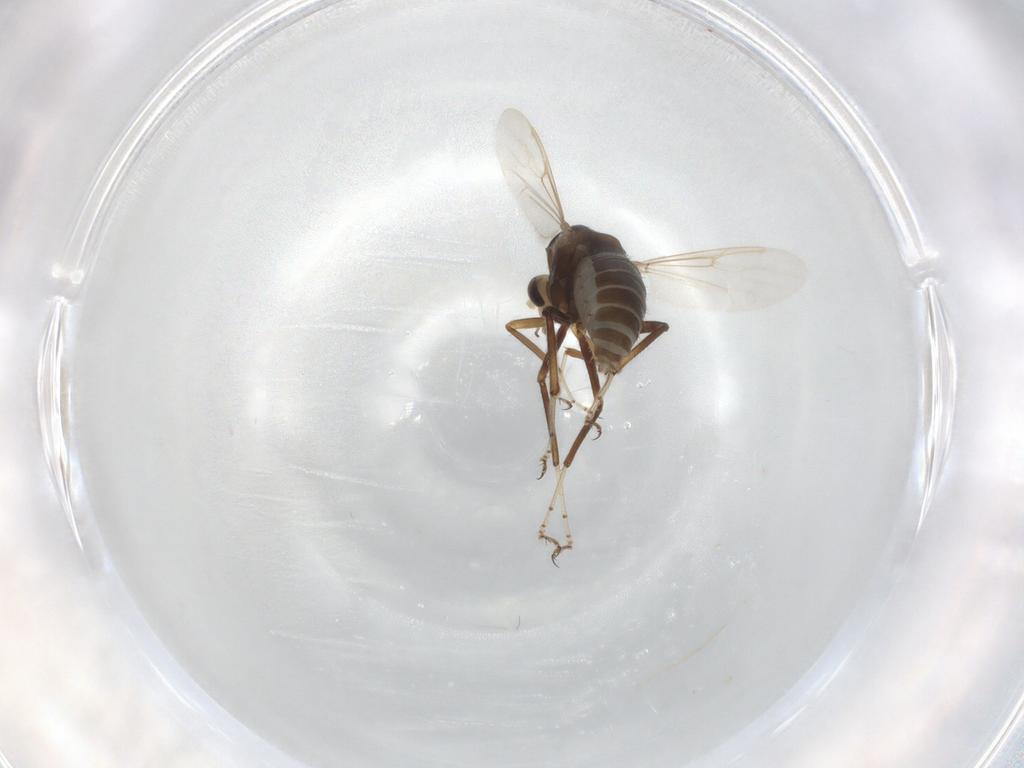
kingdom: Animalia
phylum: Arthropoda
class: Insecta
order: Diptera
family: Ceratopogonidae
